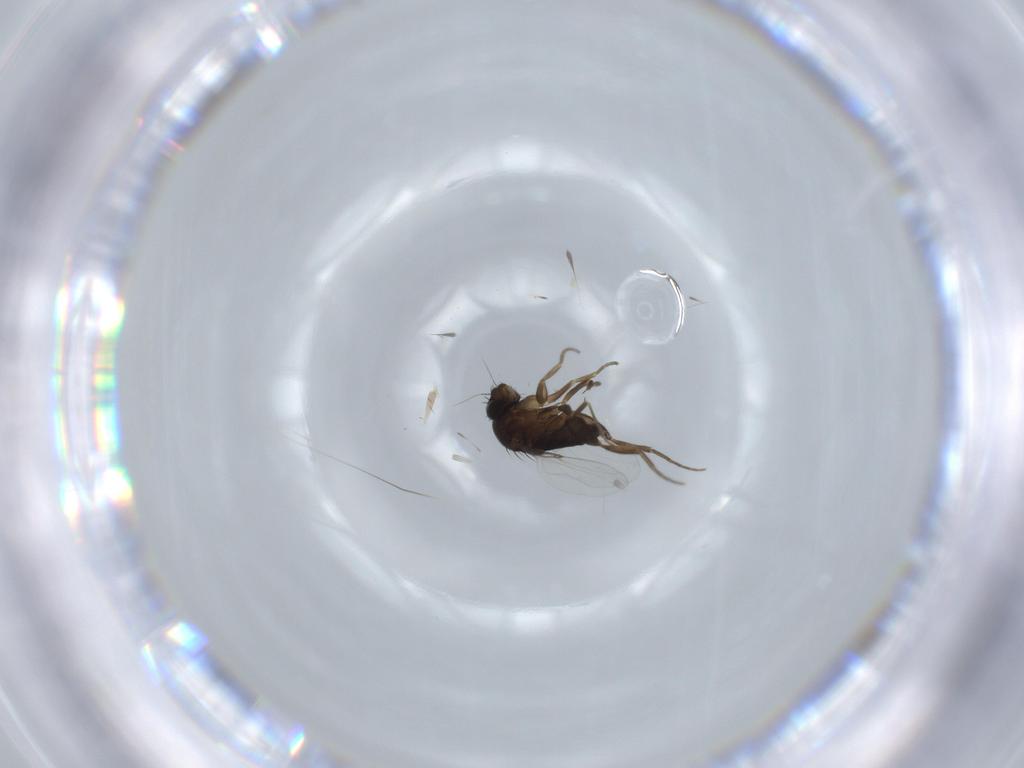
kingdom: Animalia
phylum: Arthropoda
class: Insecta
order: Diptera
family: Phoridae
